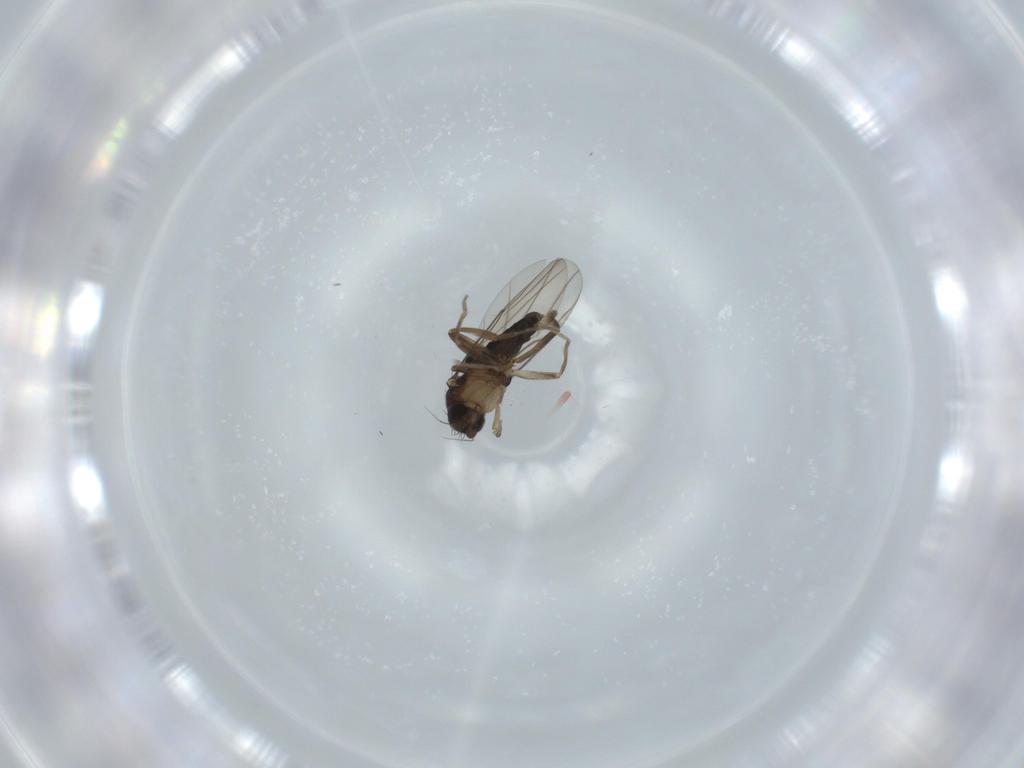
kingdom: Animalia
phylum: Arthropoda
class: Insecta
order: Diptera
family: Phoridae
